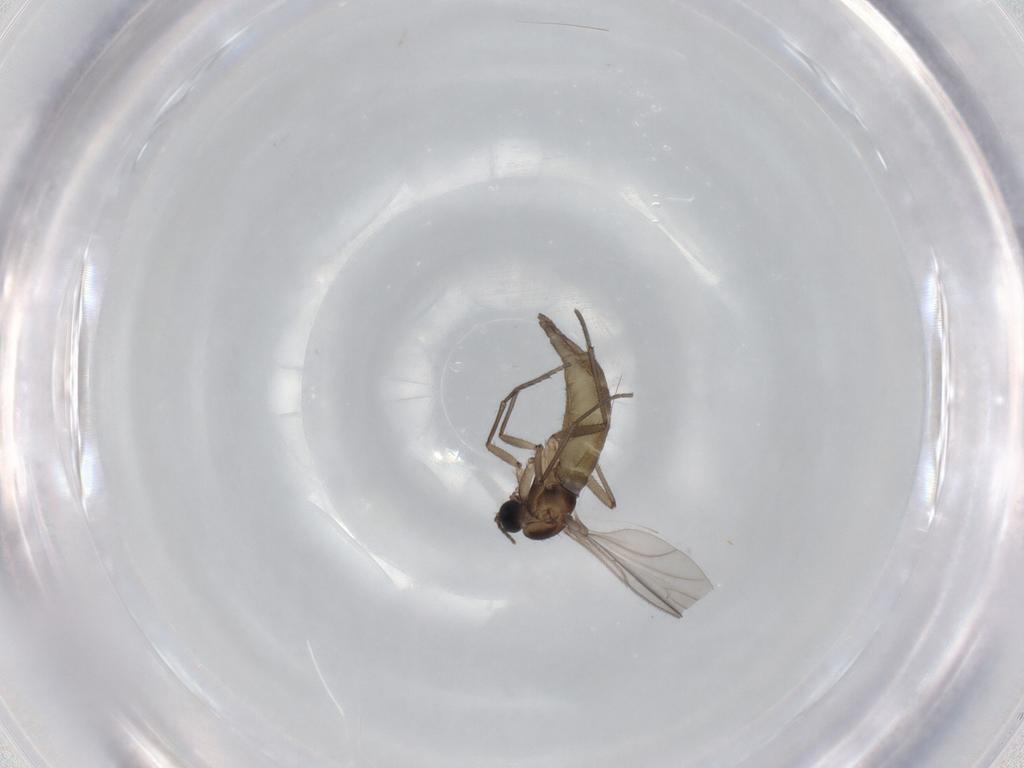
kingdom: Animalia
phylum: Arthropoda
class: Insecta
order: Diptera
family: Sciaridae
